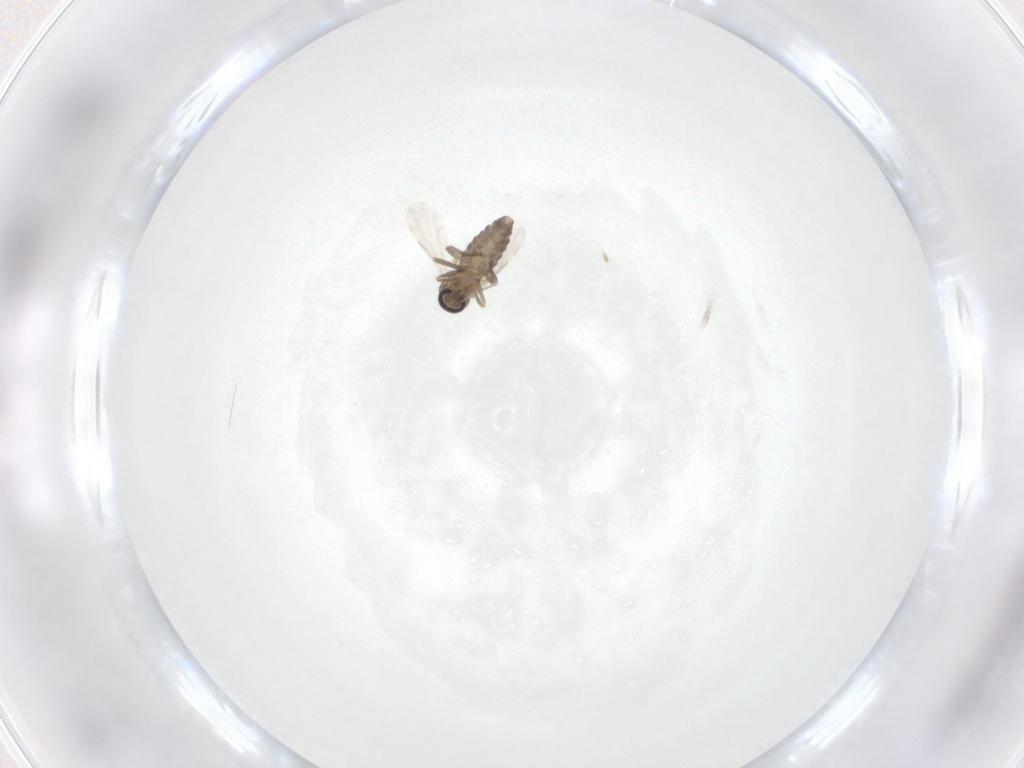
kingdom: Animalia
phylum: Arthropoda
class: Insecta
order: Diptera
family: Ceratopogonidae
